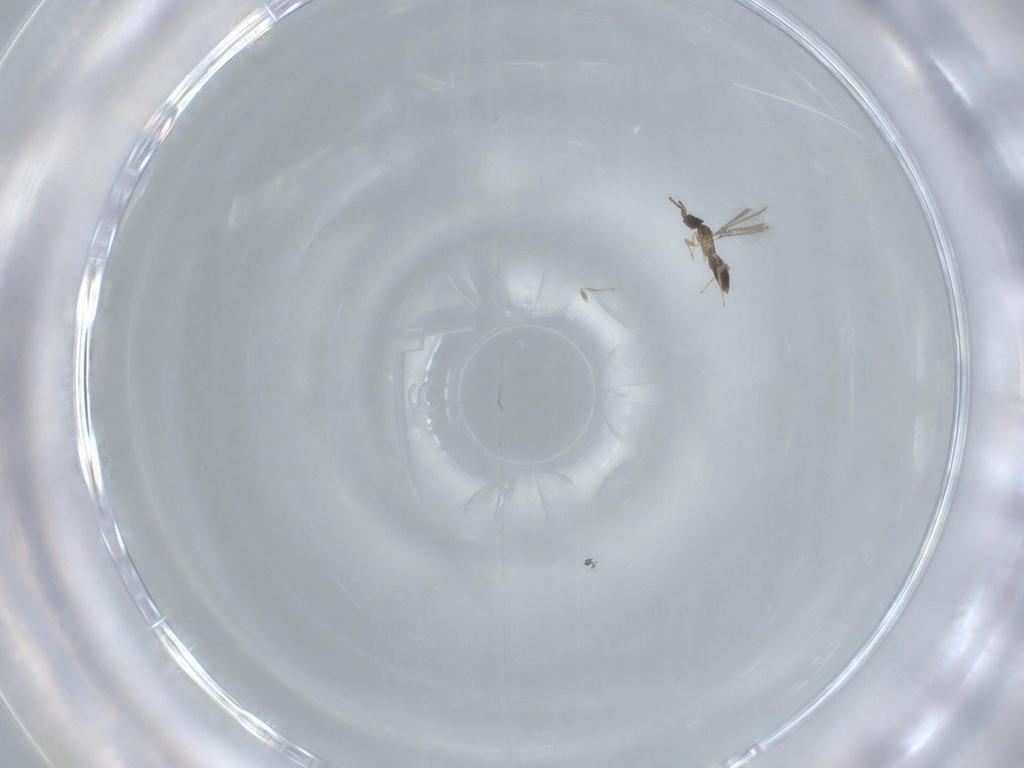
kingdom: Animalia
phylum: Arthropoda
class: Insecta
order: Hymenoptera
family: Mymaridae
